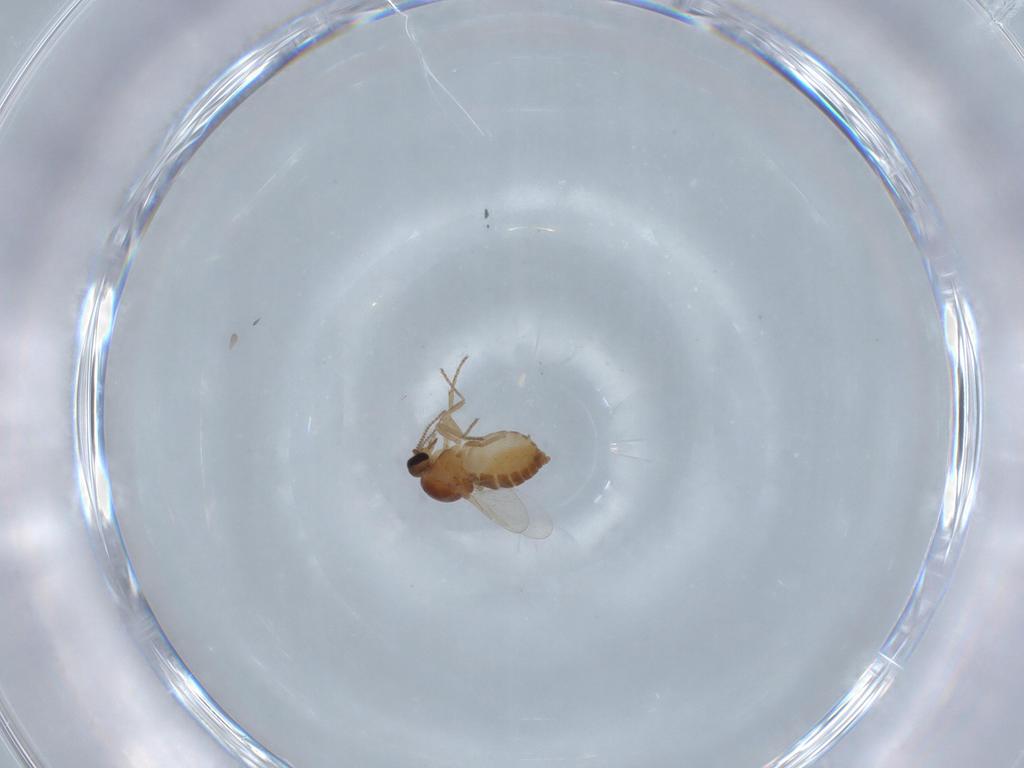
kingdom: Animalia
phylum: Arthropoda
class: Insecta
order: Diptera
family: Ceratopogonidae
